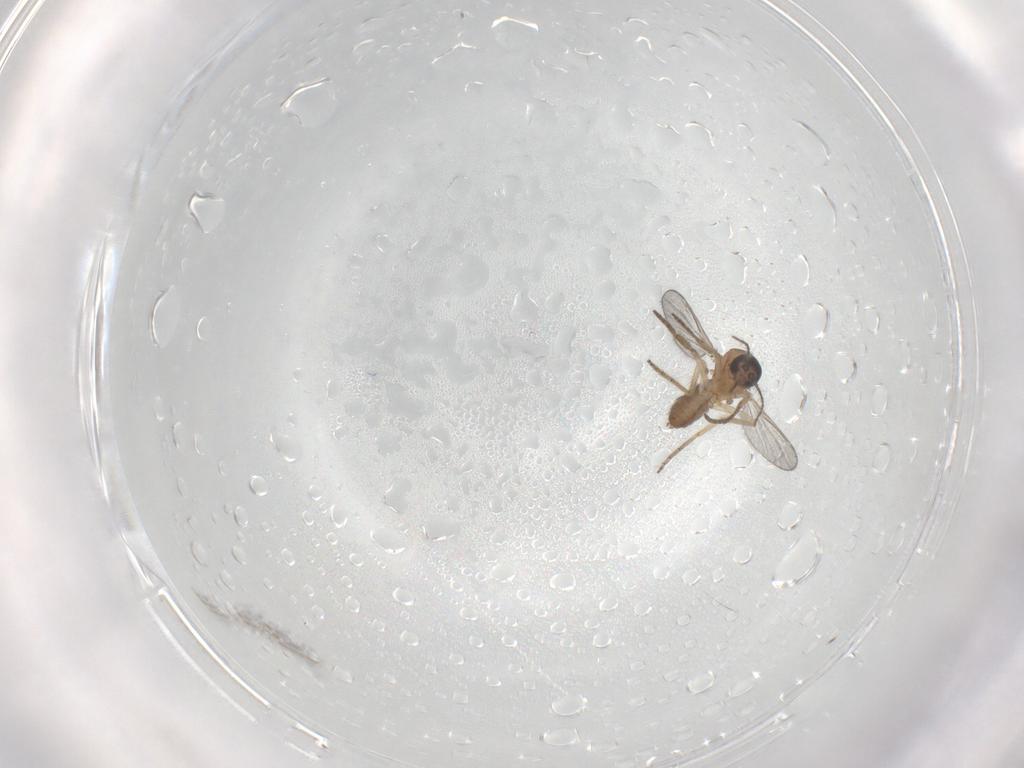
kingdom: Animalia
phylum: Arthropoda
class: Insecta
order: Diptera
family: Chironomidae
